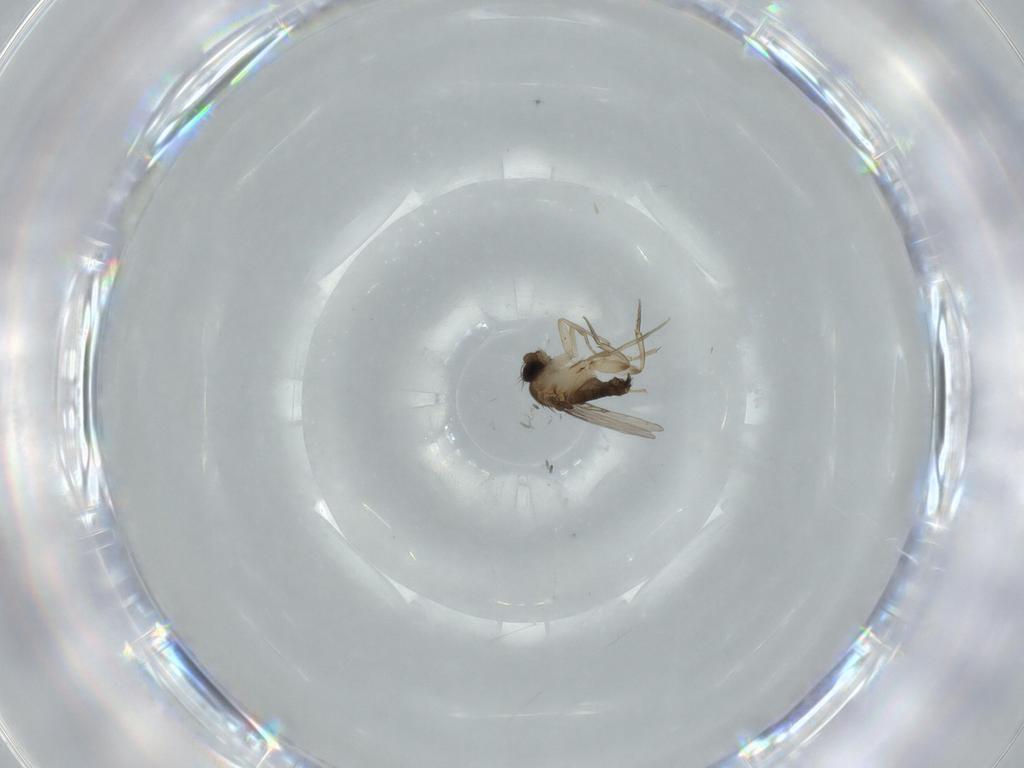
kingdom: Animalia
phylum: Arthropoda
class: Insecta
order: Diptera
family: Phoridae
